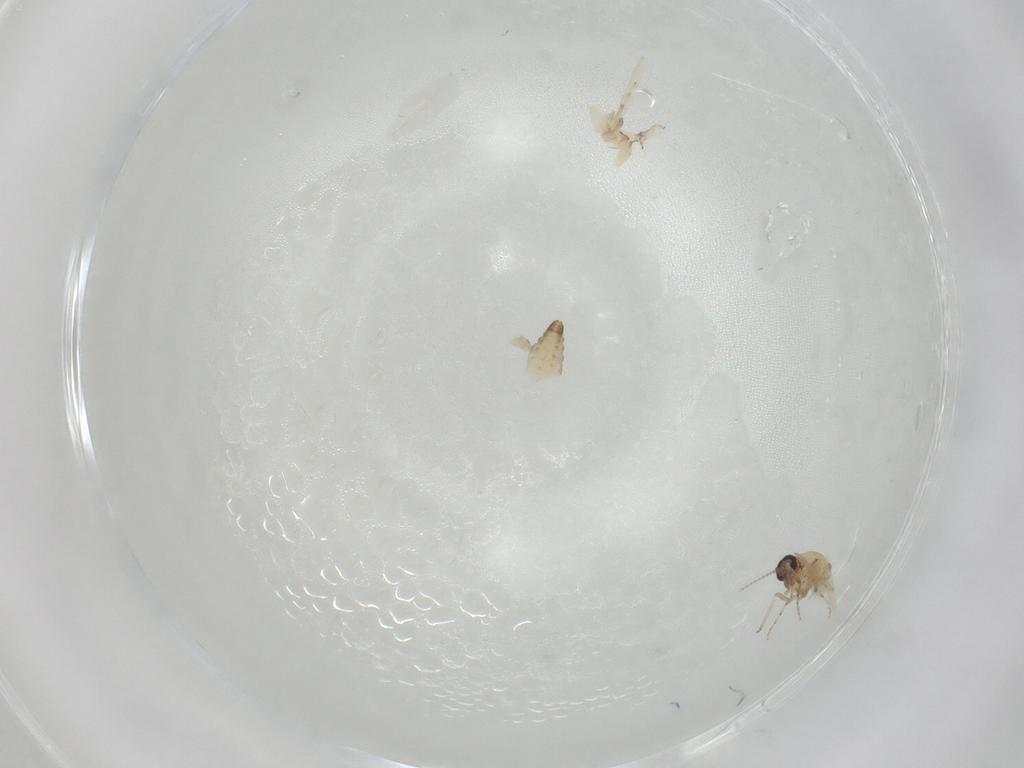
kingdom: Animalia
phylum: Arthropoda
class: Insecta
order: Diptera
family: Ceratopogonidae
